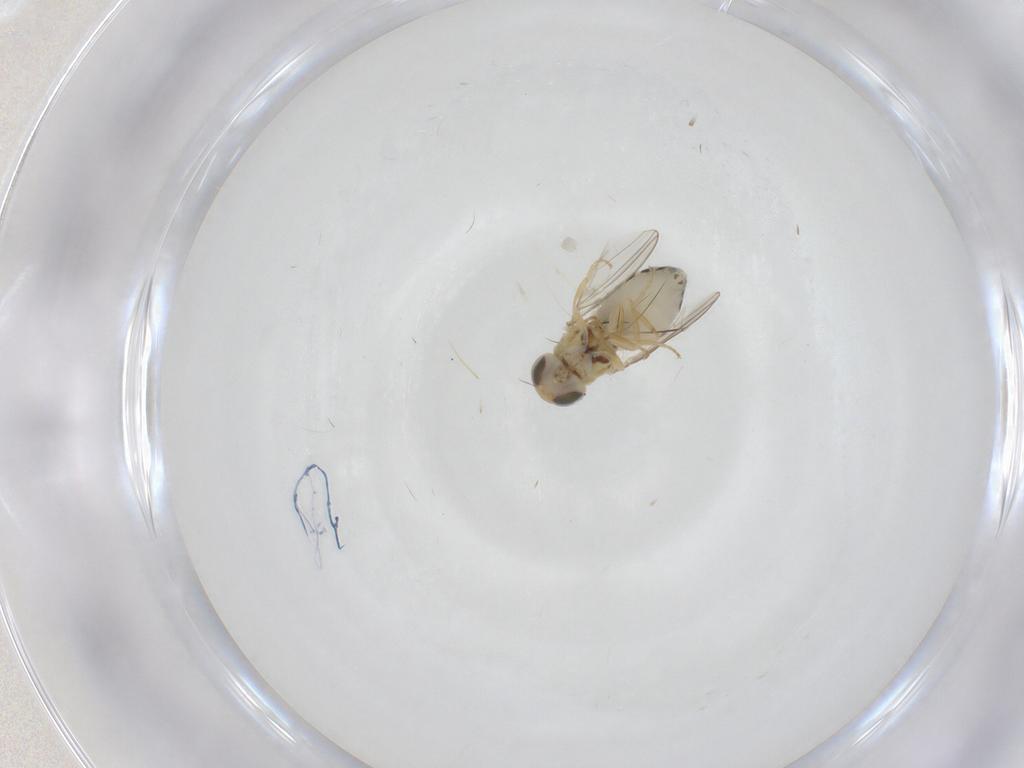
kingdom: Animalia
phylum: Arthropoda
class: Insecta
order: Diptera
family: Chyromyidae
